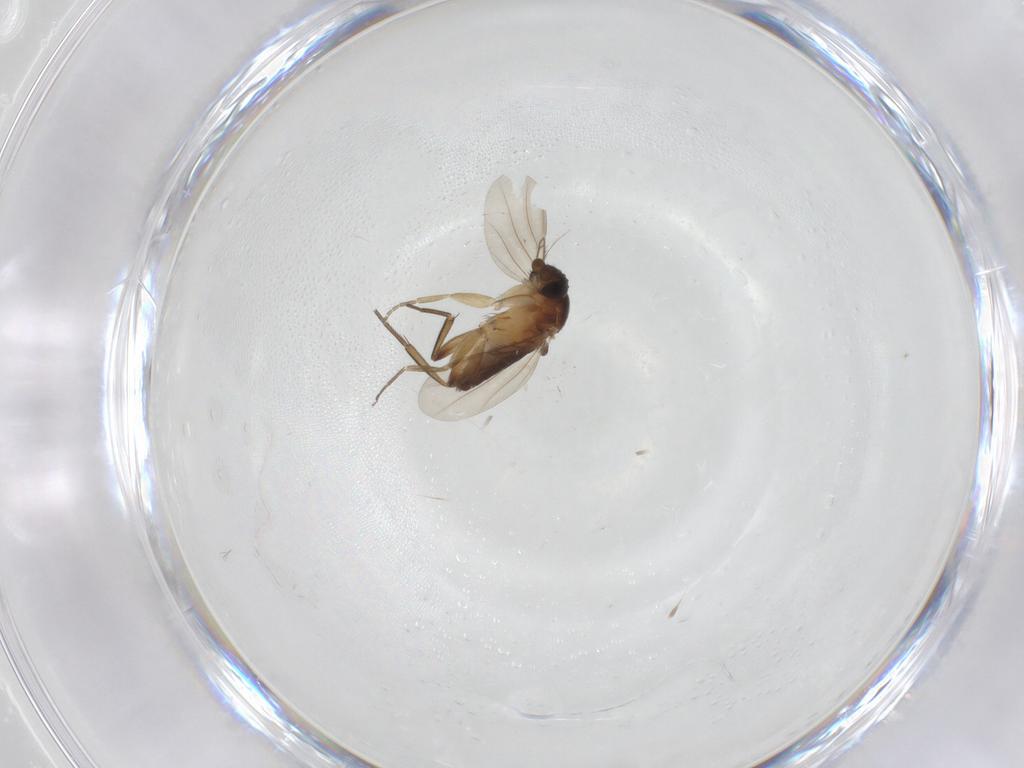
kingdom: Animalia
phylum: Arthropoda
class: Insecta
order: Diptera
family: Phoridae
